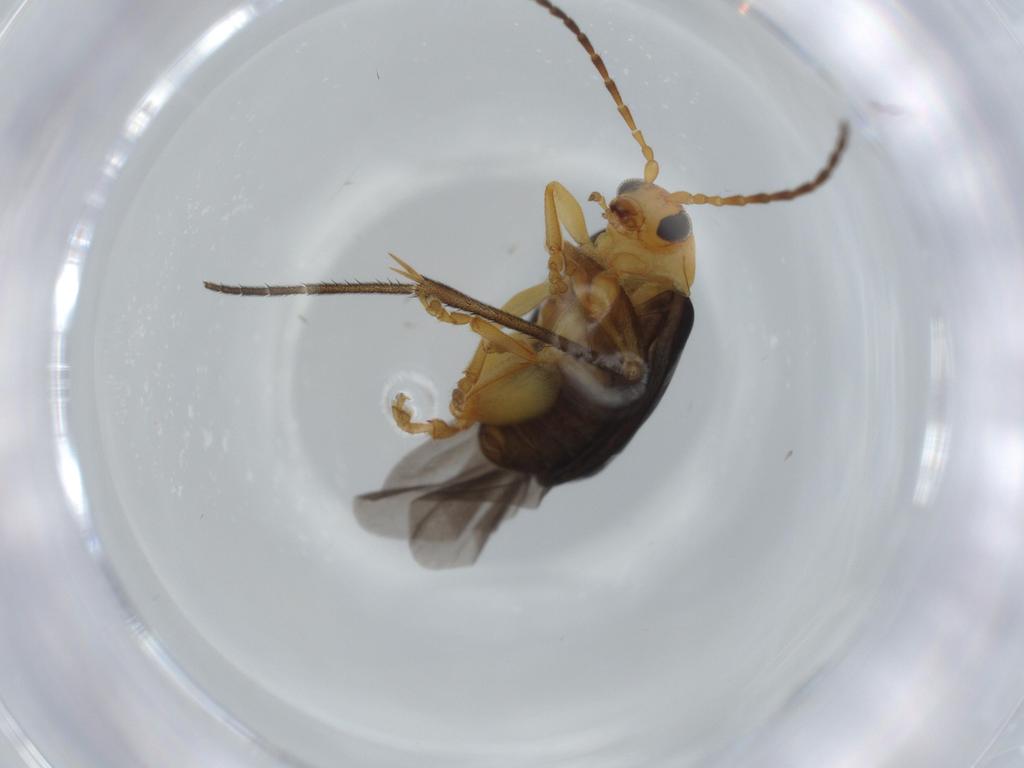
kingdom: Animalia
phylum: Arthropoda
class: Insecta
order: Coleoptera
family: Chrysomelidae
